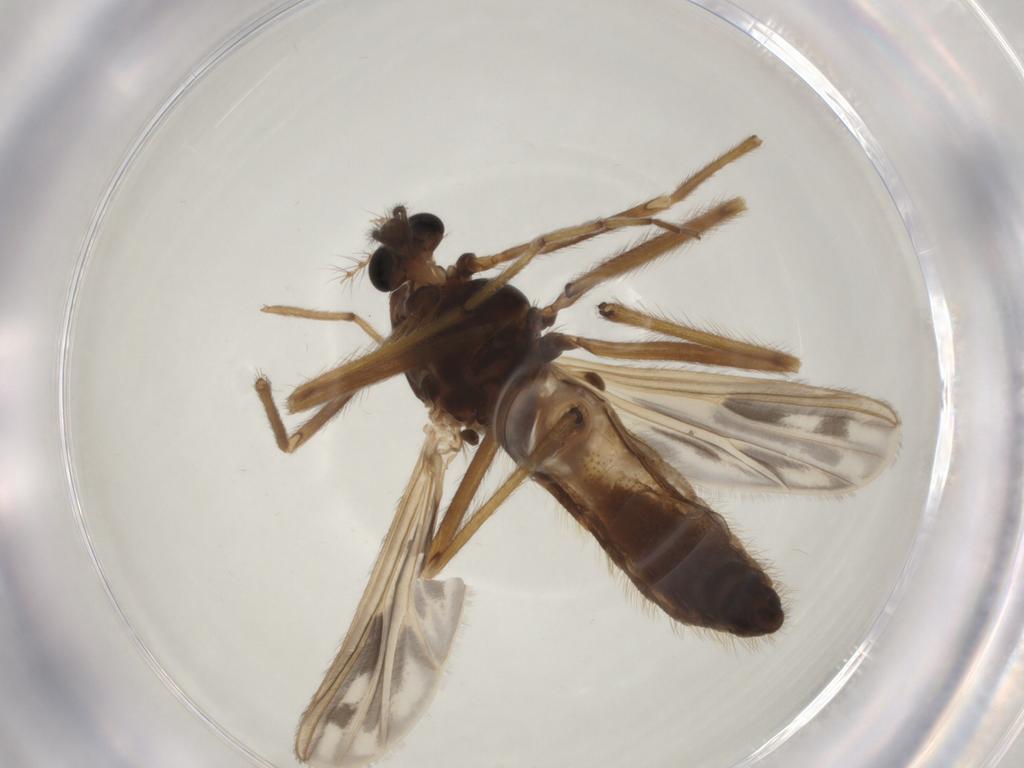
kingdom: Animalia
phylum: Arthropoda
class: Insecta
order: Diptera
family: Chironomidae
